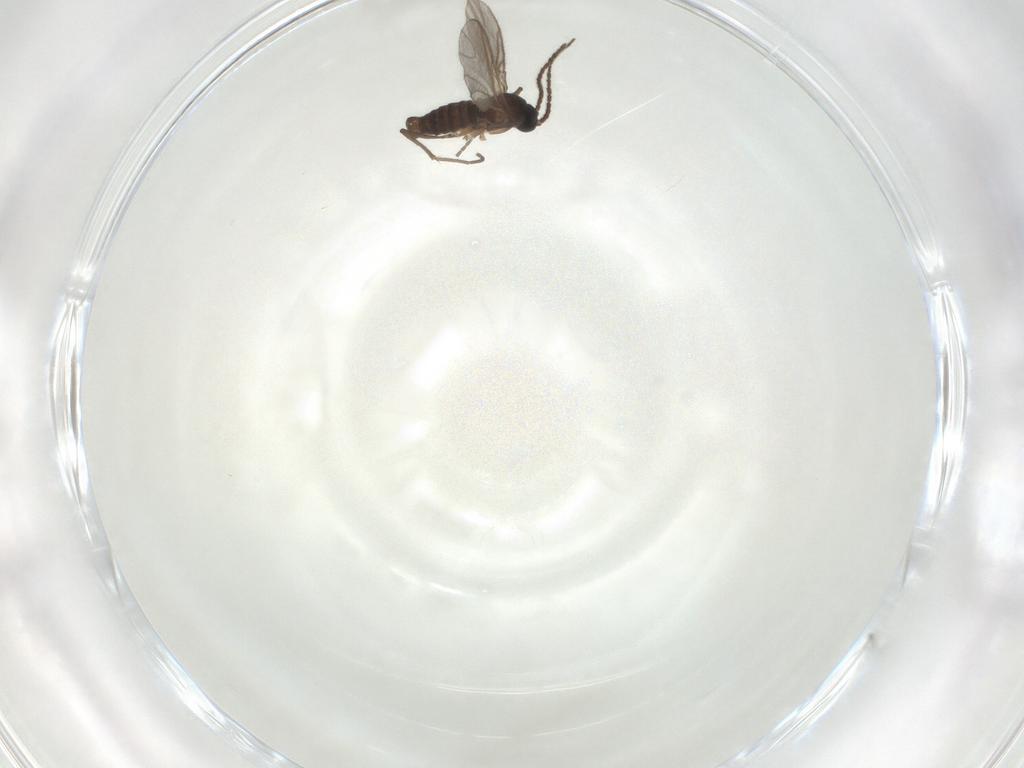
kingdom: Animalia
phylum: Arthropoda
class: Insecta
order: Diptera
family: Sciaridae
